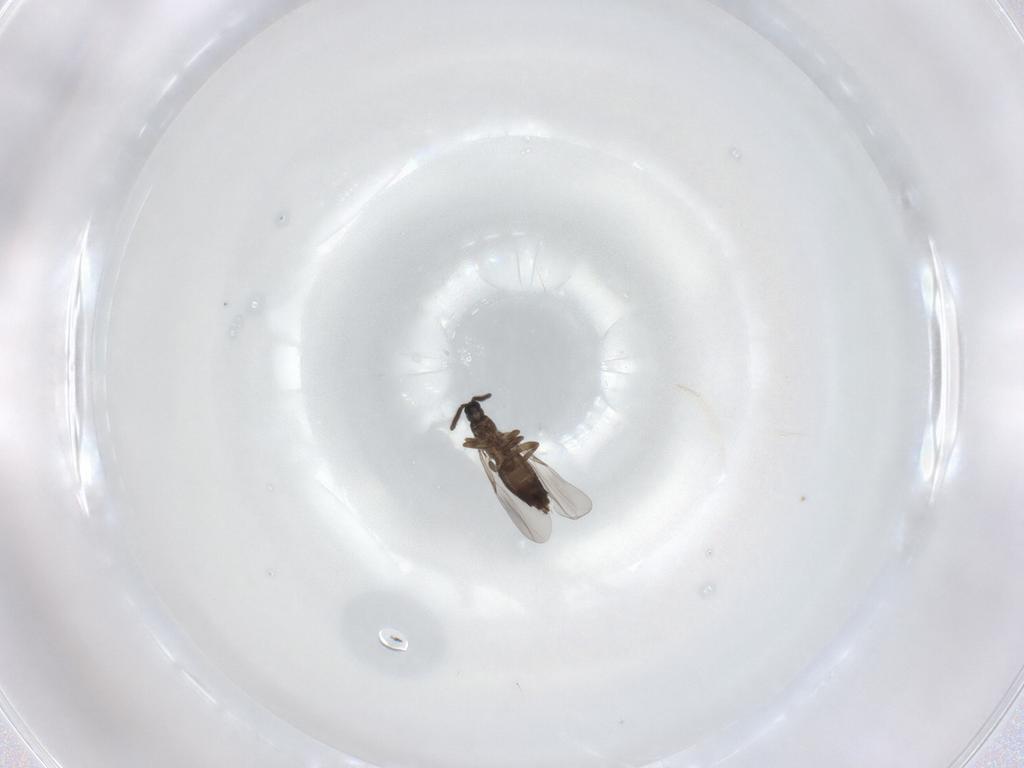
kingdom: Animalia
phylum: Arthropoda
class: Insecta
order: Diptera
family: Scatopsidae
